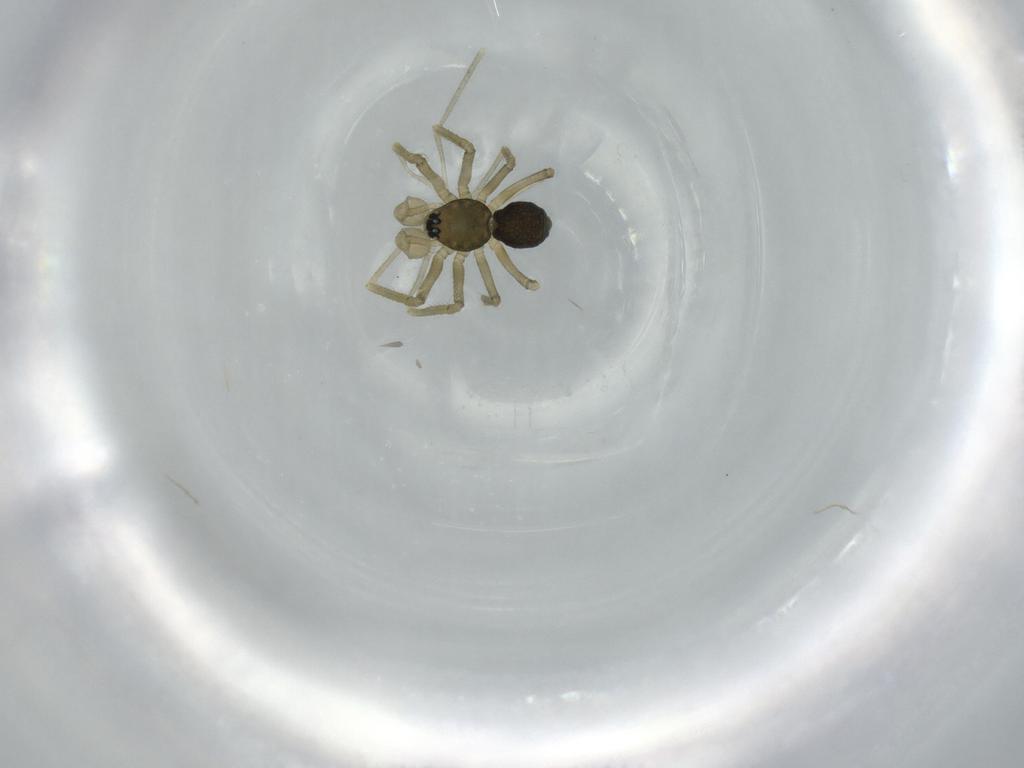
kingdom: Animalia
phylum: Arthropoda
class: Arachnida
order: Araneae
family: Linyphiidae
